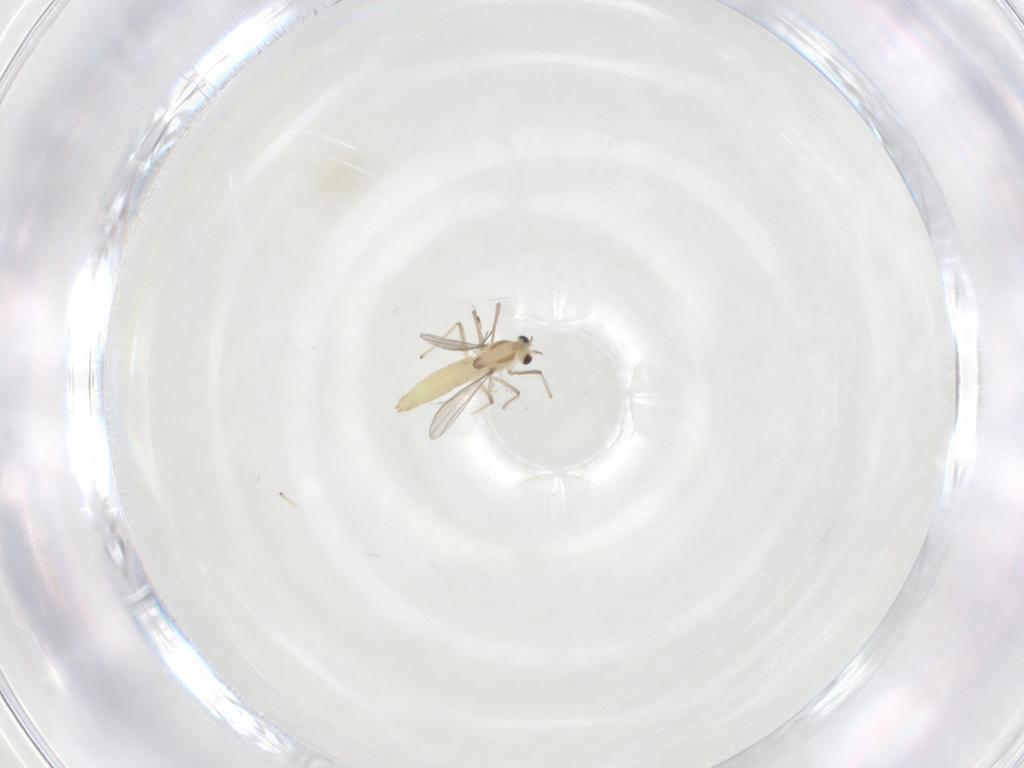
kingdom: Animalia
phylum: Arthropoda
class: Insecta
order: Diptera
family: Chironomidae
